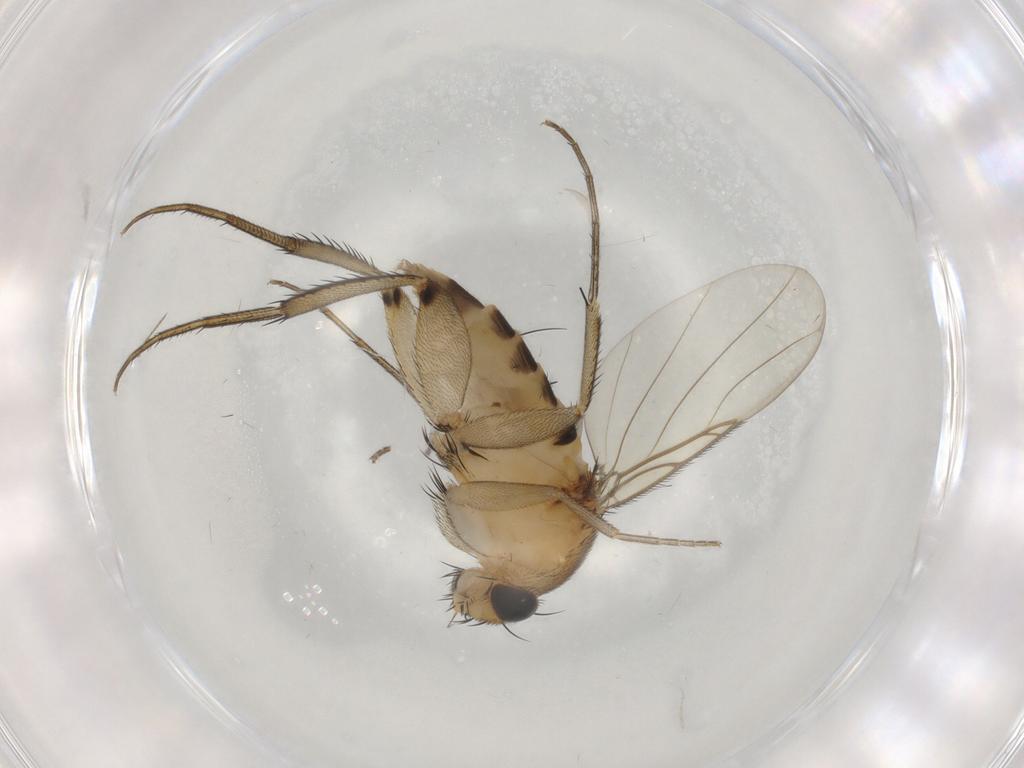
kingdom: Animalia
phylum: Arthropoda
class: Insecta
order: Diptera
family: Phoridae
